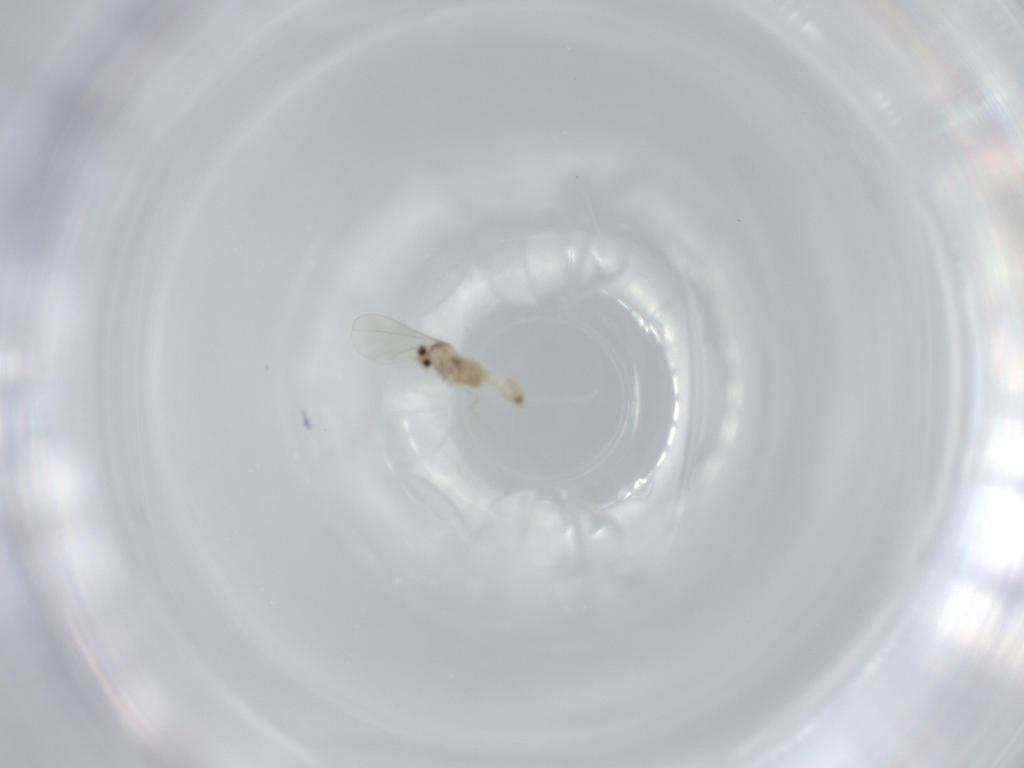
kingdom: Animalia
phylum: Arthropoda
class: Insecta
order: Diptera
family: Cecidomyiidae
